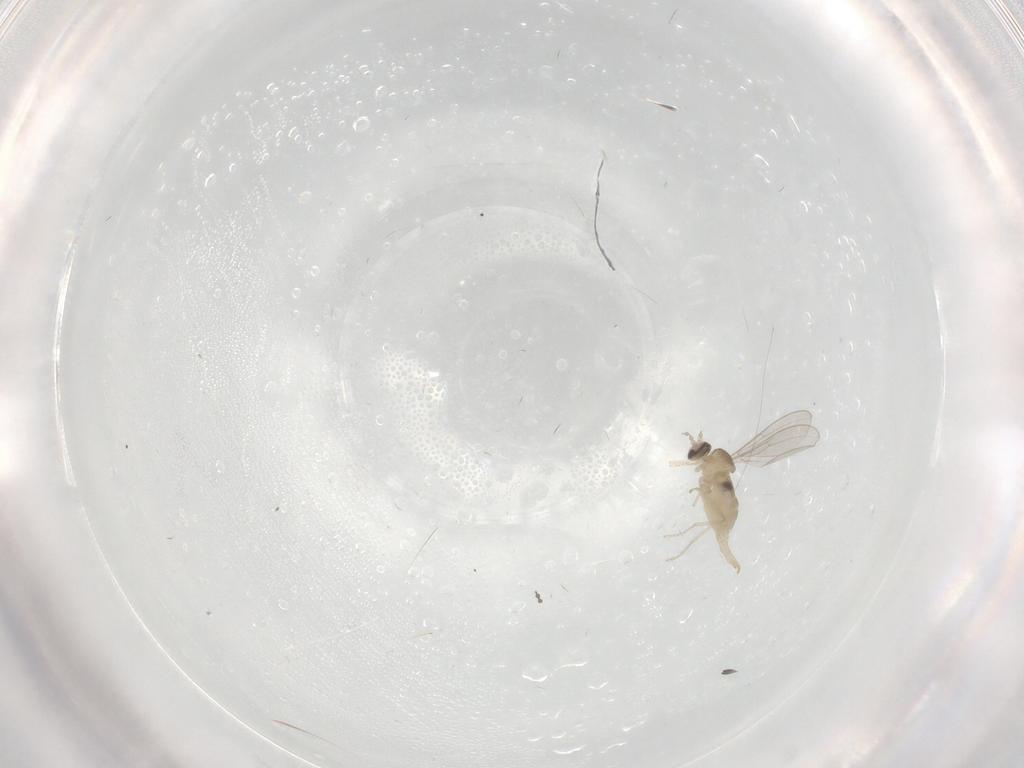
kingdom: Animalia
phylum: Arthropoda
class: Insecta
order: Diptera
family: Cecidomyiidae
